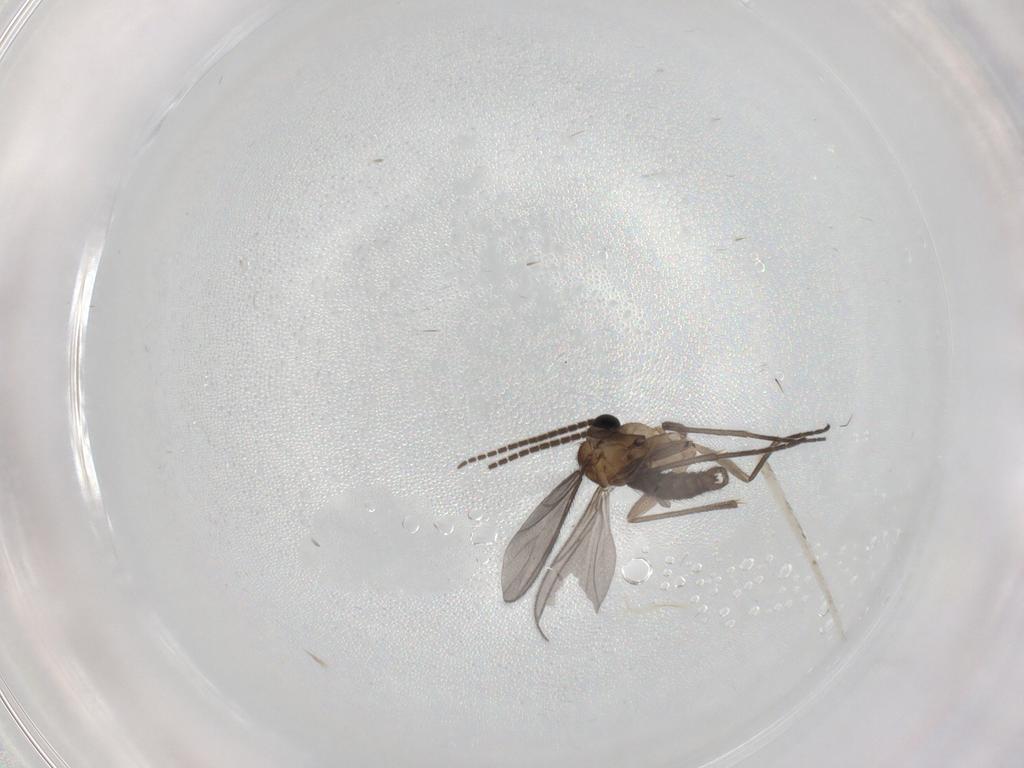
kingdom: Animalia
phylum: Arthropoda
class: Insecta
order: Diptera
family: Sciaridae
